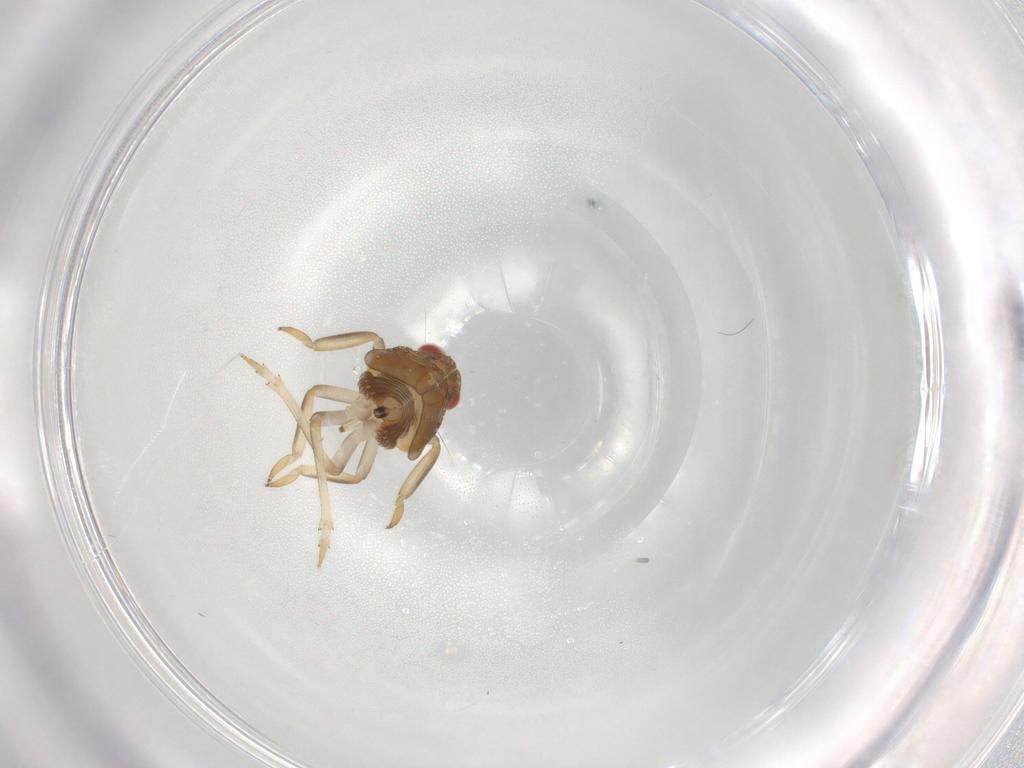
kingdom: Animalia
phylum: Arthropoda
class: Insecta
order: Hemiptera
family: Issidae
